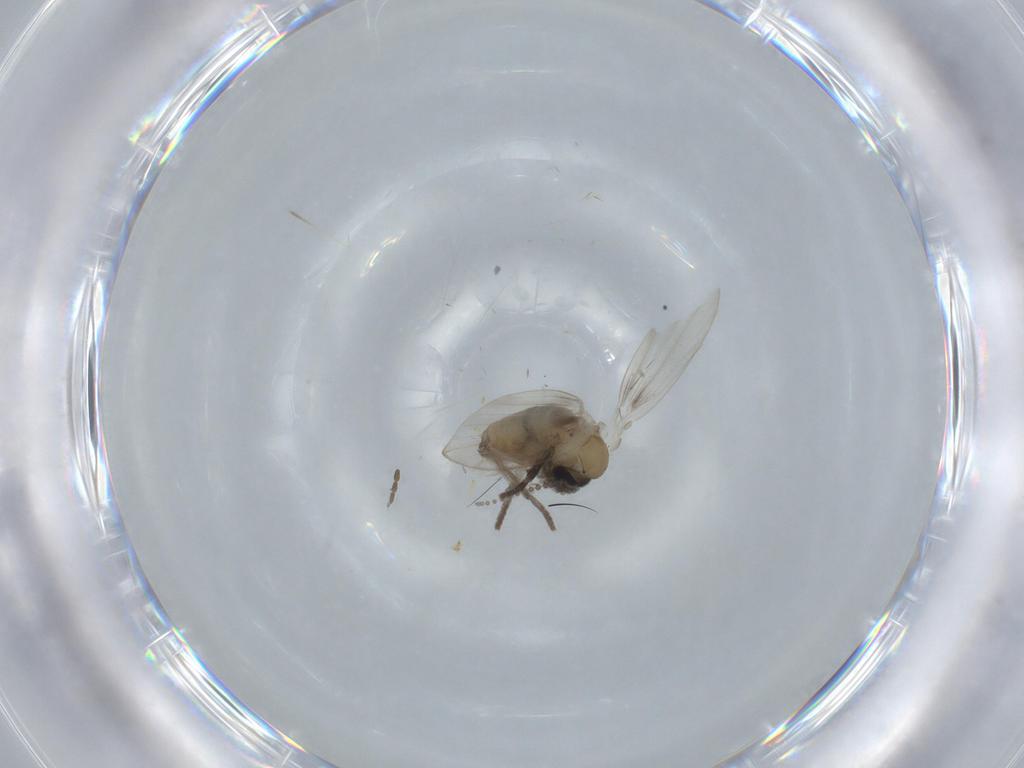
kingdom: Animalia
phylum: Arthropoda
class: Insecta
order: Diptera
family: Psychodidae
